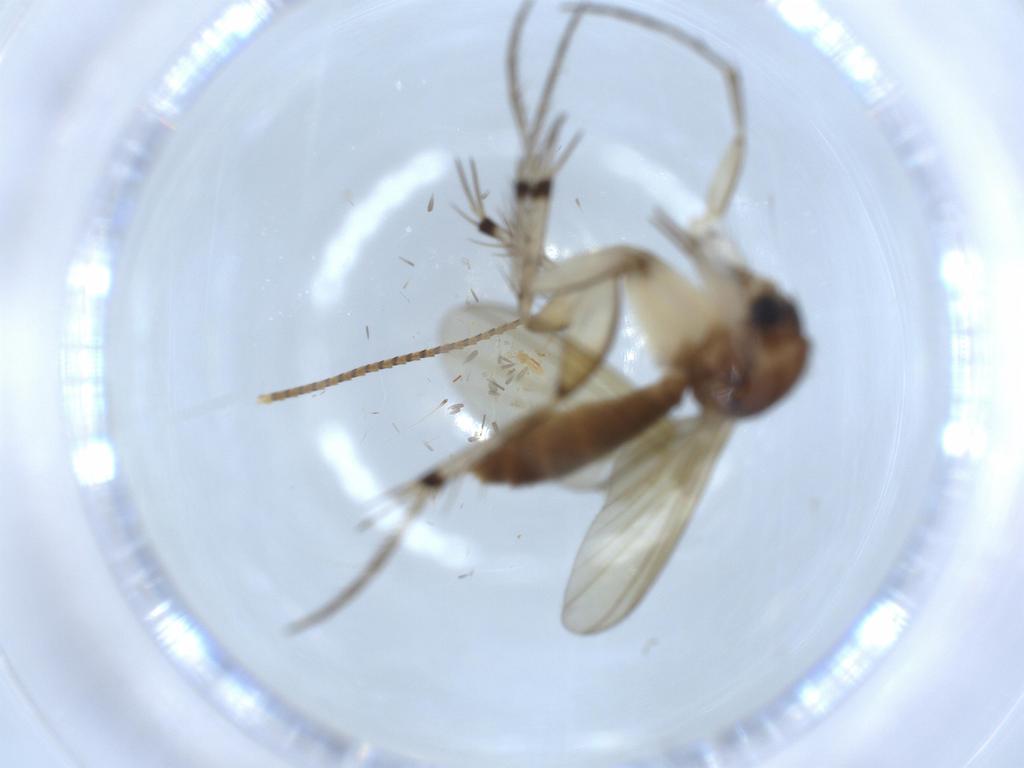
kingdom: Animalia
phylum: Arthropoda
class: Insecta
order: Diptera
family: Mycetophilidae
